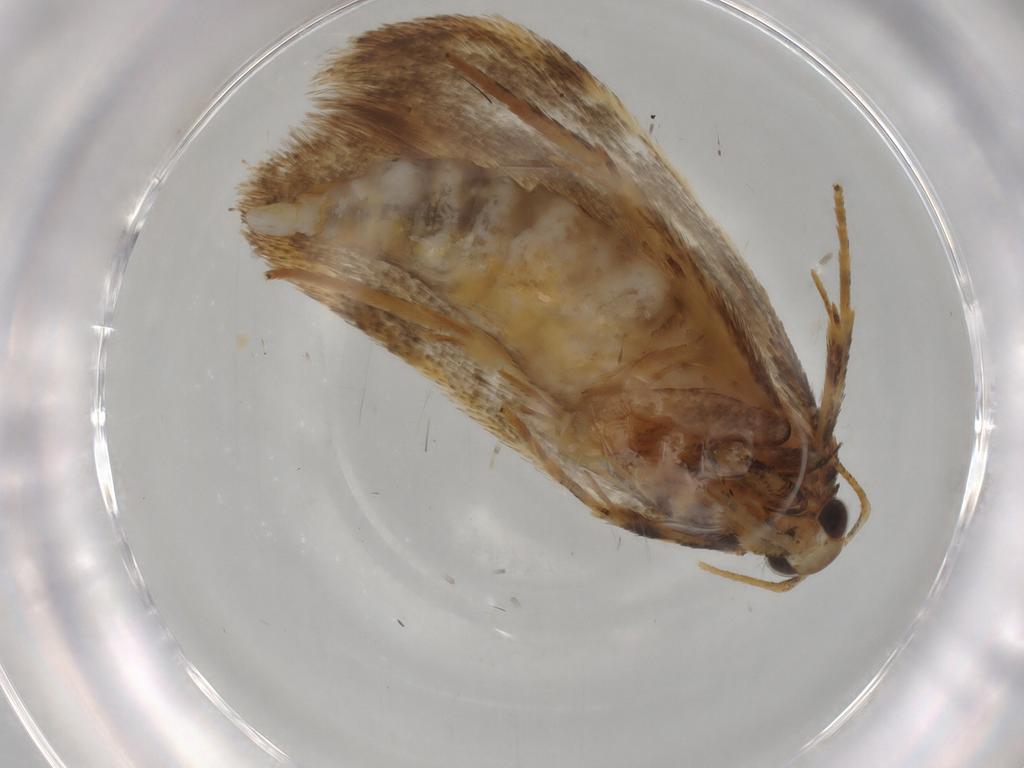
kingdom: Animalia
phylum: Arthropoda
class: Insecta
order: Lepidoptera
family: Gelechiidae
